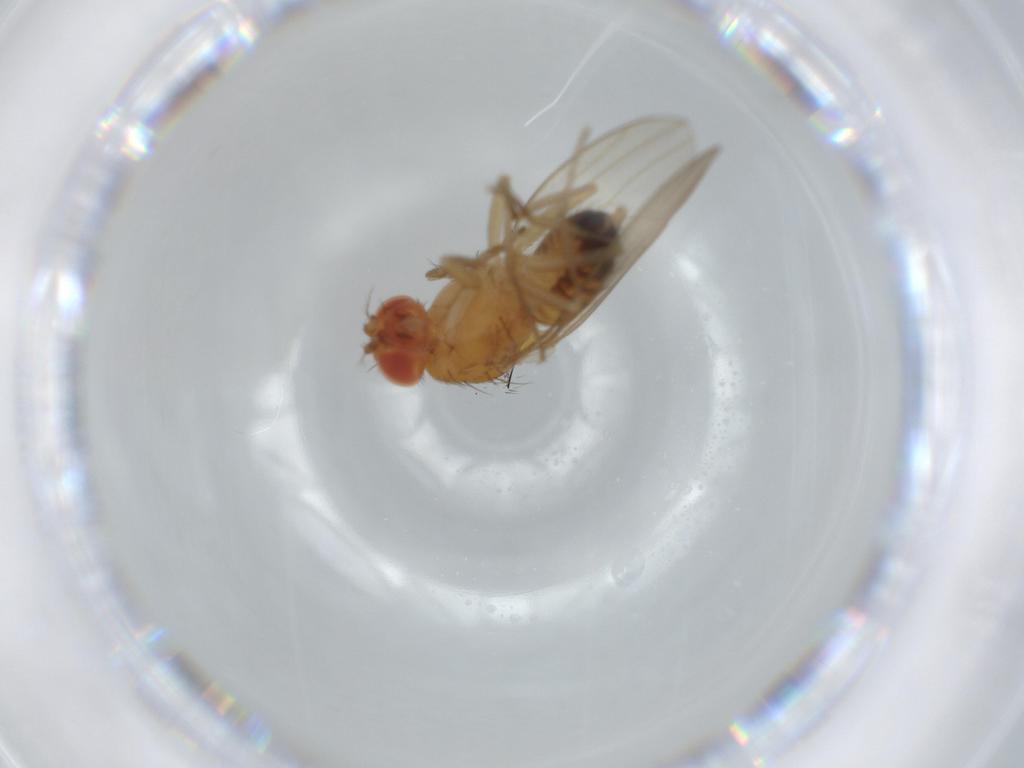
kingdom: Animalia
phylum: Arthropoda
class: Insecta
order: Diptera
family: Drosophilidae
